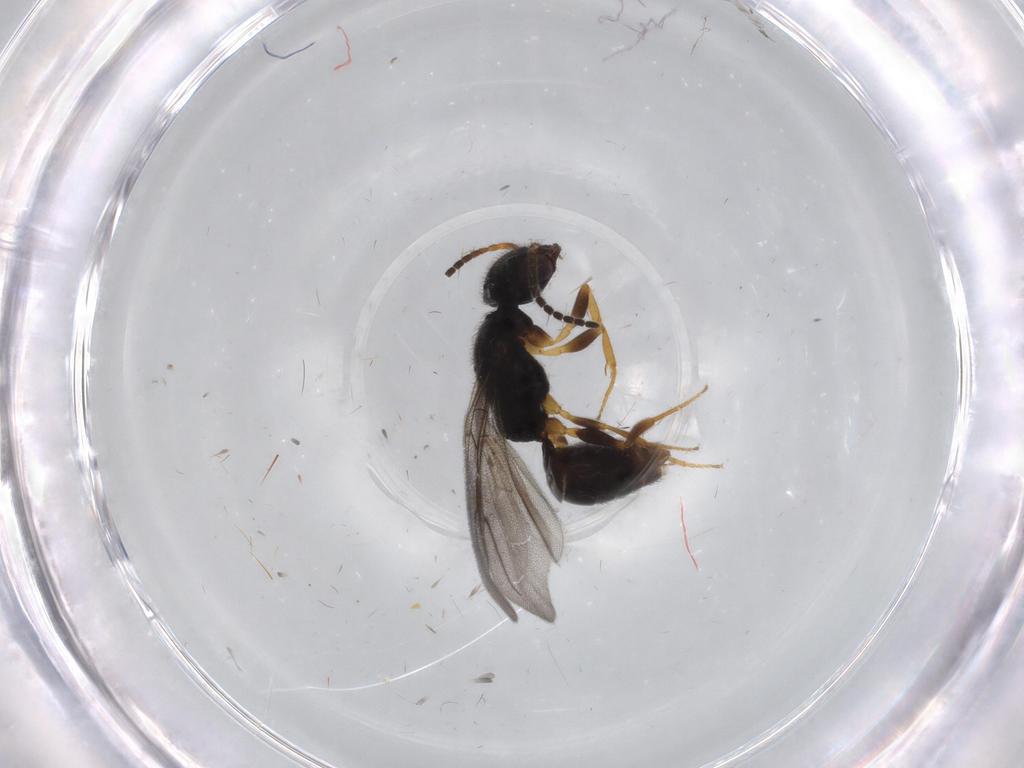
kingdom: Animalia
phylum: Arthropoda
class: Insecta
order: Hymenoptera
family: Bethylidae
